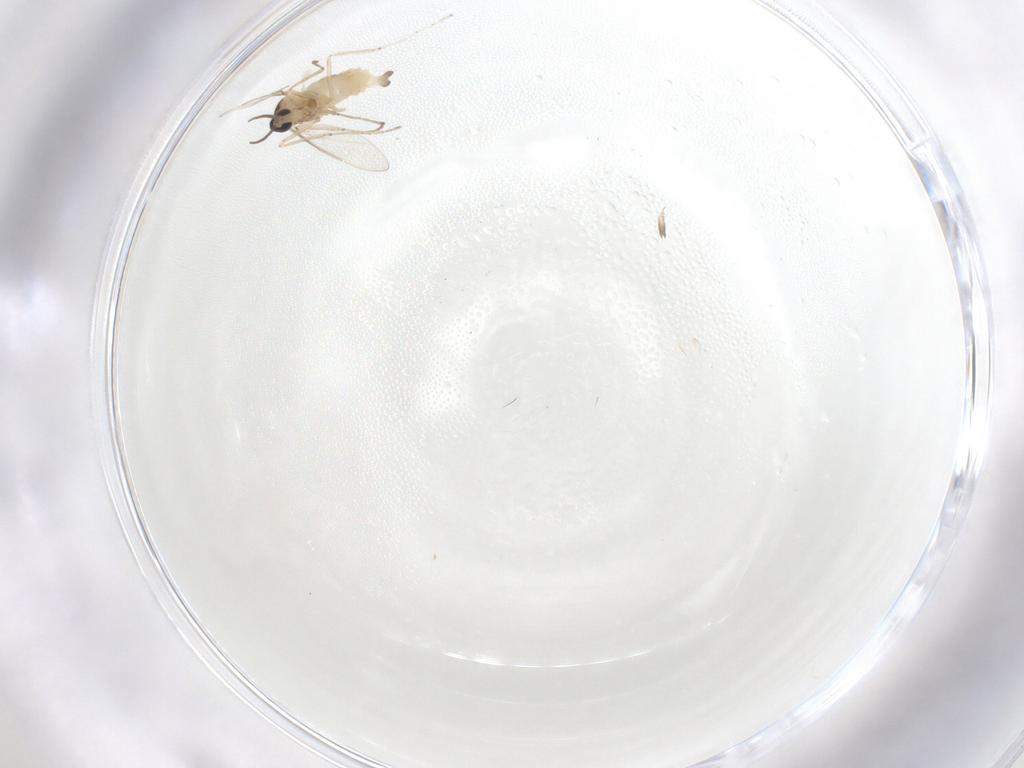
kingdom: Animalia
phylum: Arthropoda
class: Insecta
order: Diptera
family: Cecidomyiidae
